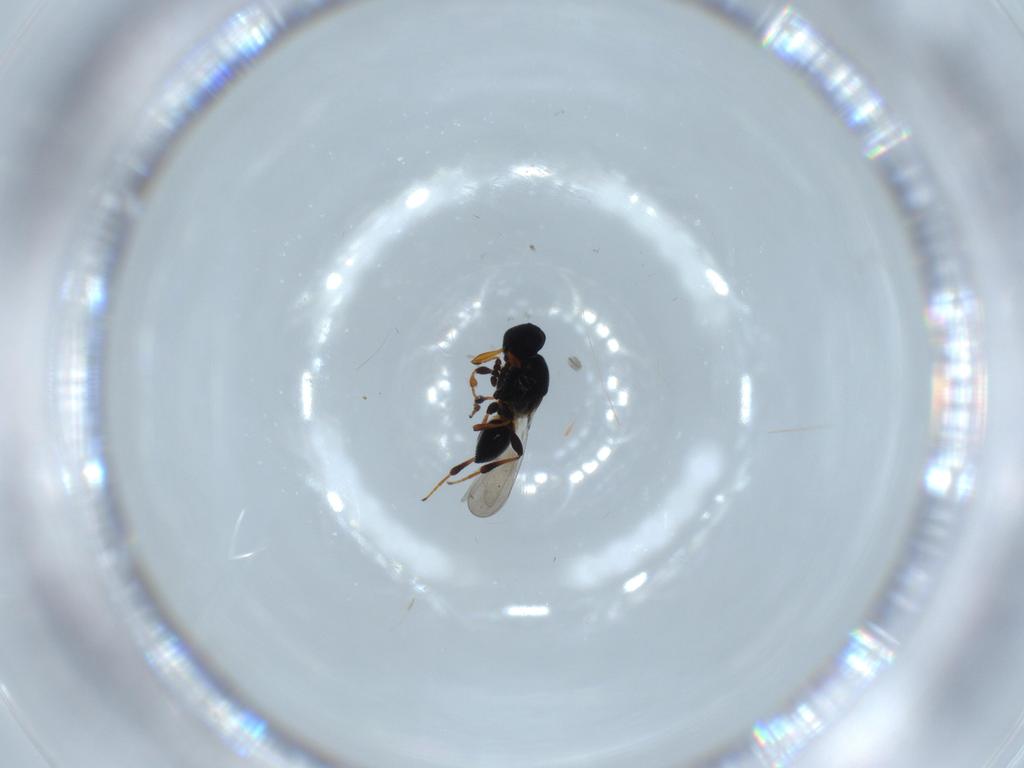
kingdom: Animalia
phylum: Arthropoda
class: Insecta
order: Hymenoptera
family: Platygastridae
